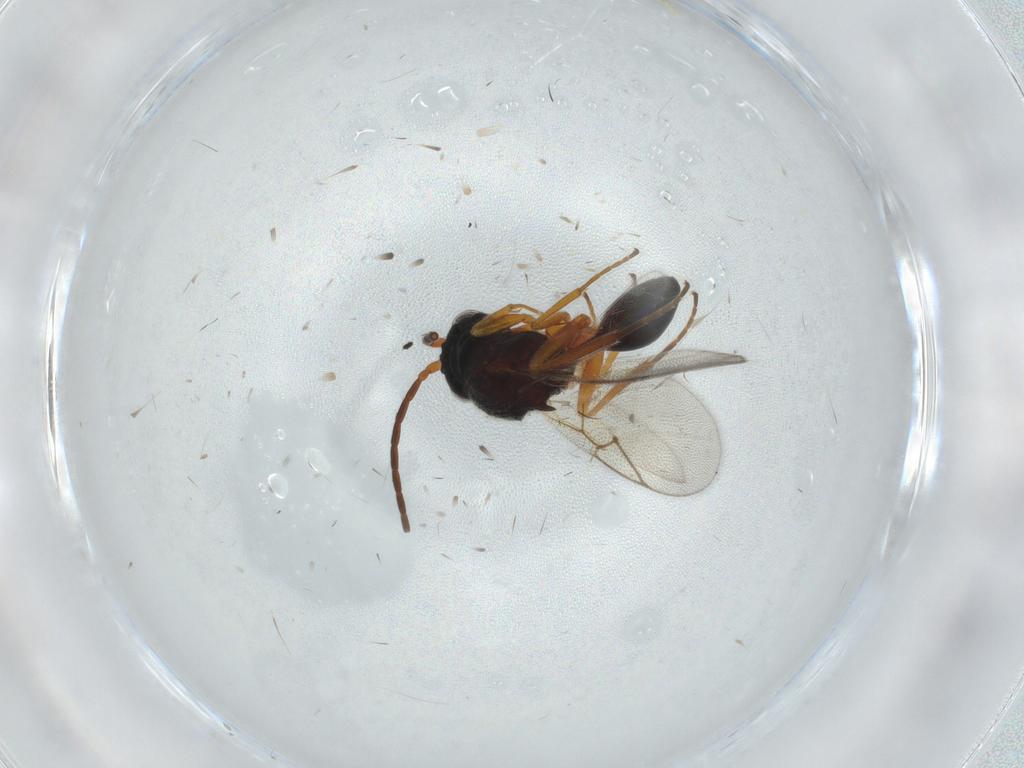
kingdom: Animalia
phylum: Arthropoda
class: Insecta
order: Hymenoptera
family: Figitidae
